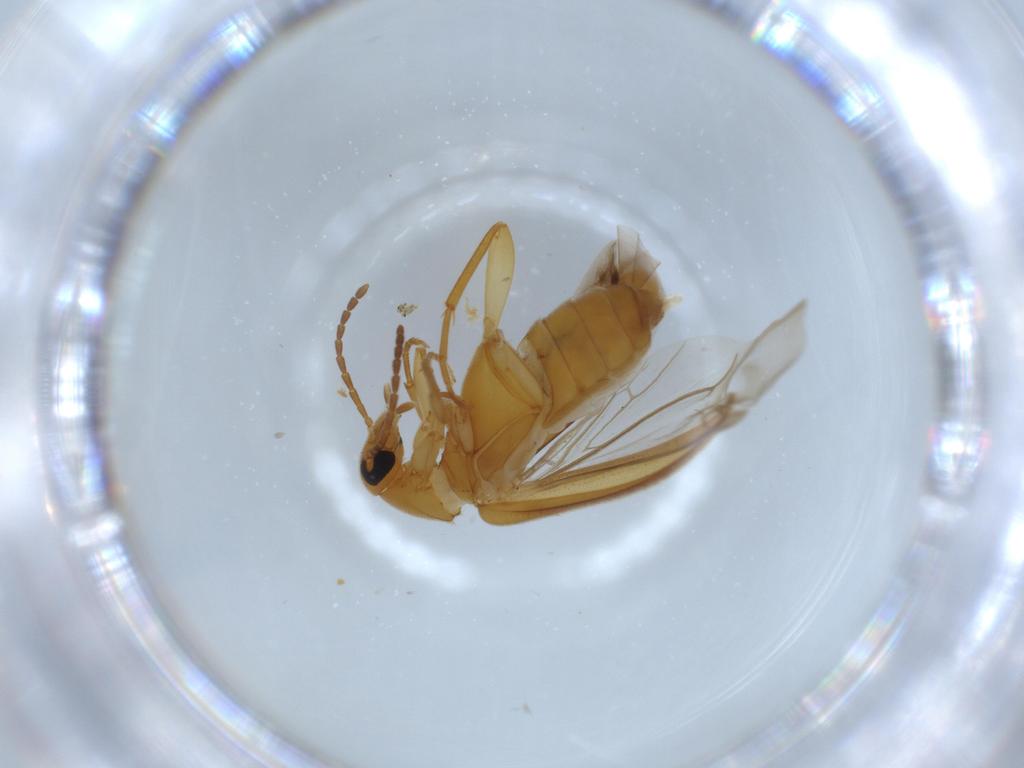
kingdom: Animalia
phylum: Arthropoda
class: Insecta
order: Coleoptera
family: Scraptiidae
